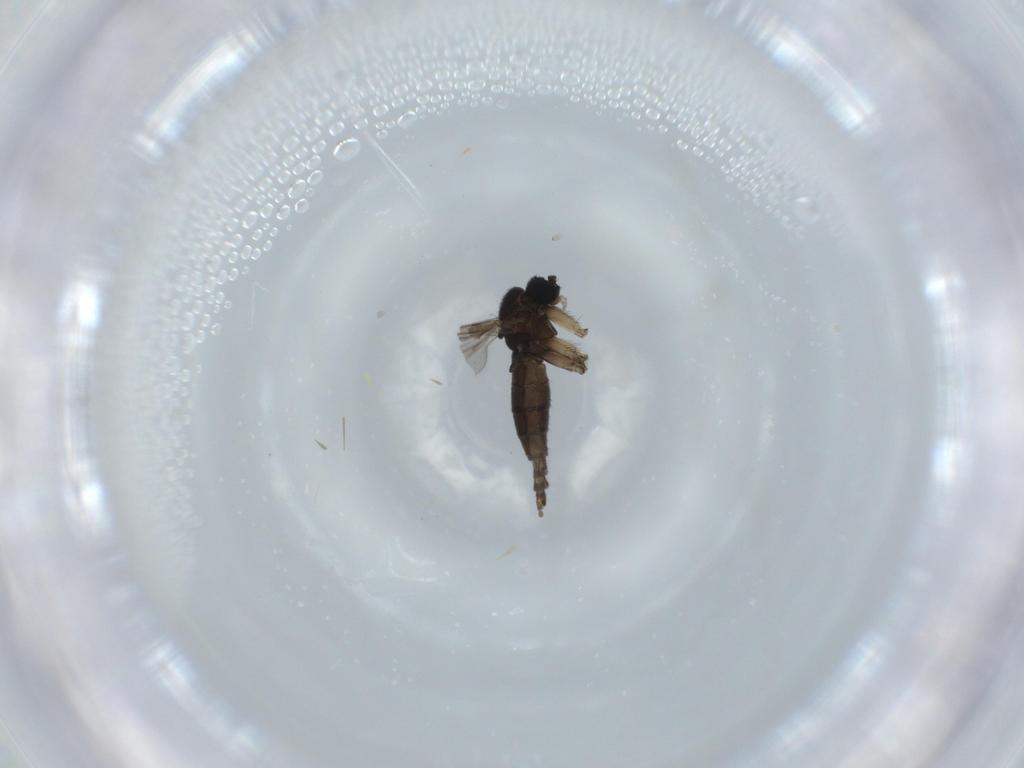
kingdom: Animalia
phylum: Arthropoda
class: Insecta
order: Diptera
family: Sciaridae
